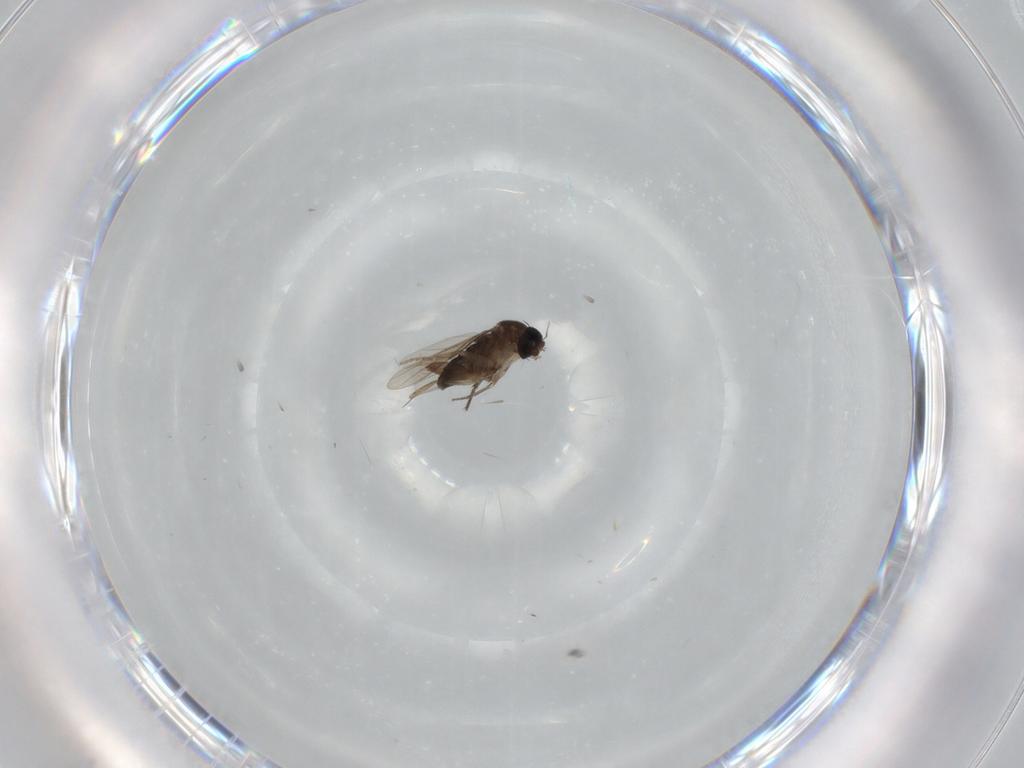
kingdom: Animalia
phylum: Arthropoda
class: Insecta
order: Diptera
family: Phoridae
